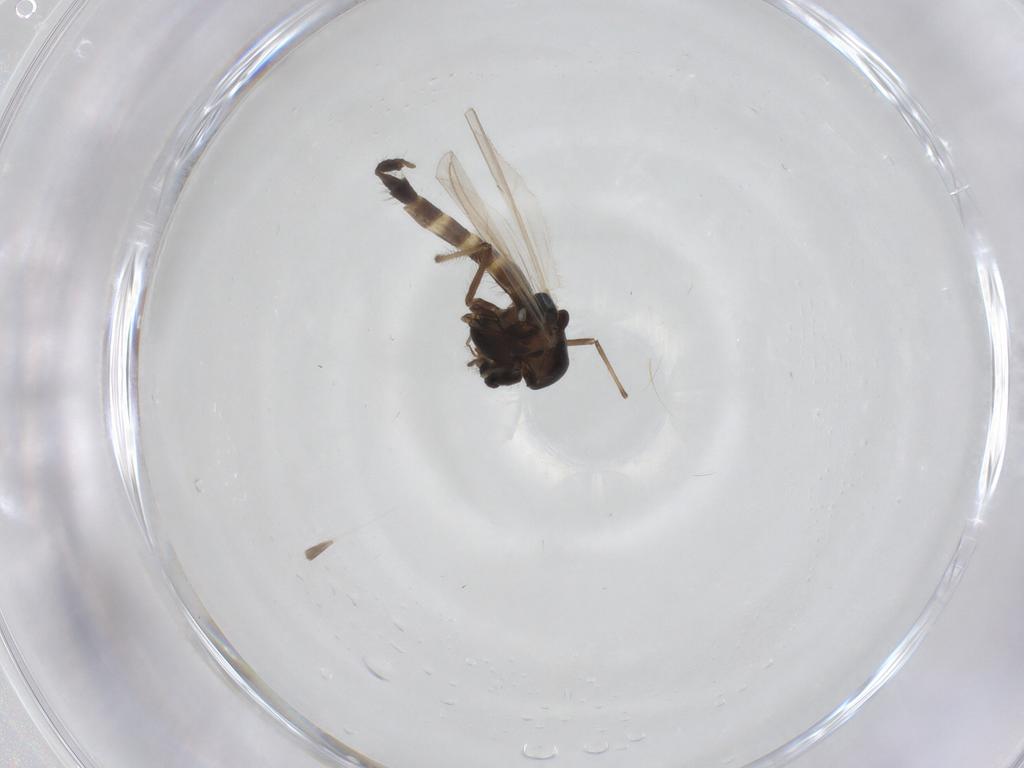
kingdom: Animalia
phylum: Arthropoda
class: Insecta
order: Diptera
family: Chironomidae
